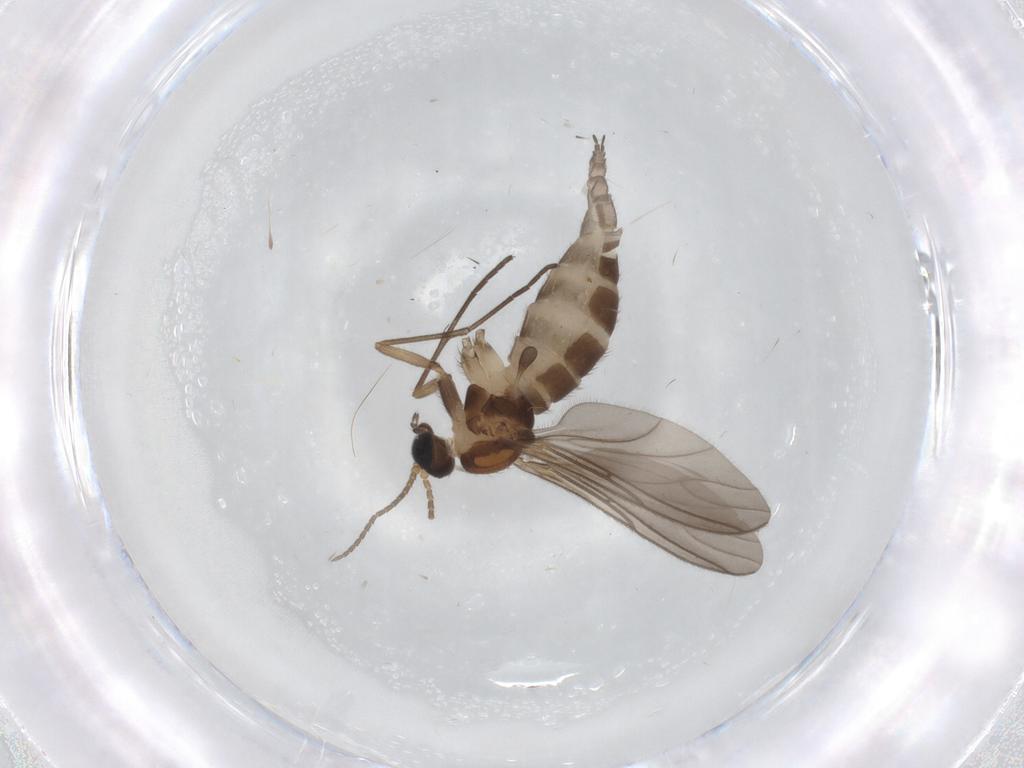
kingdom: Animalia
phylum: Arthropoda
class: Insecta
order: Diptera
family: Sciaridae
